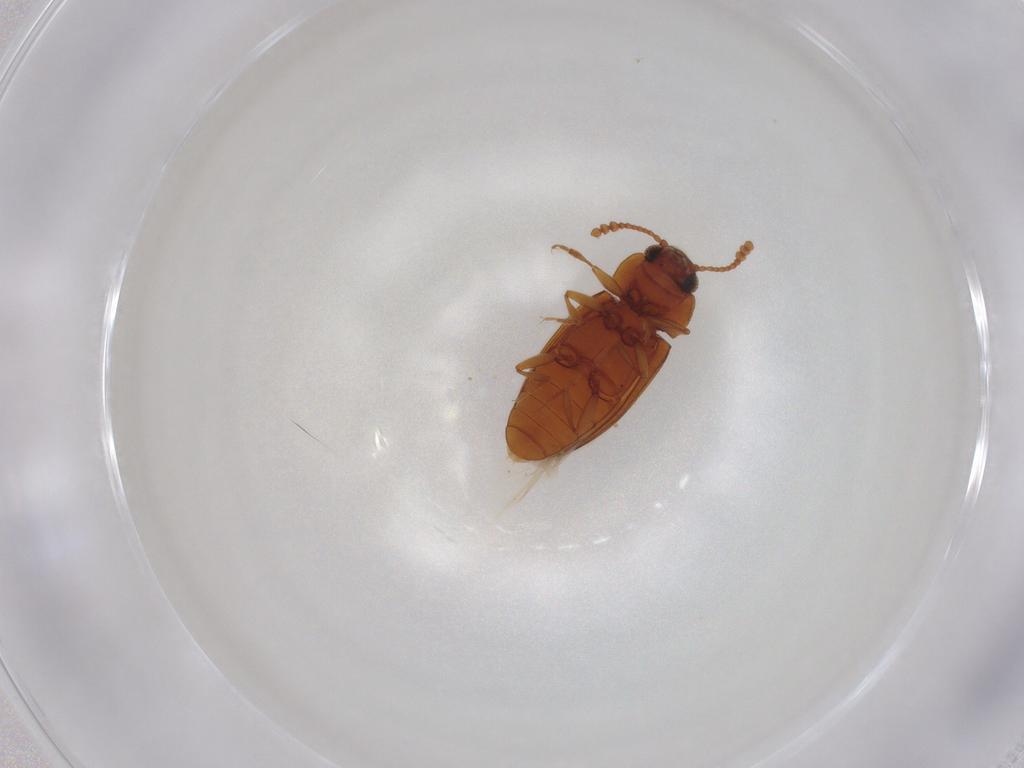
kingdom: Animalia
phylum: Arthropoda
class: Insecta
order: Coleoptera
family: Erotylidae
